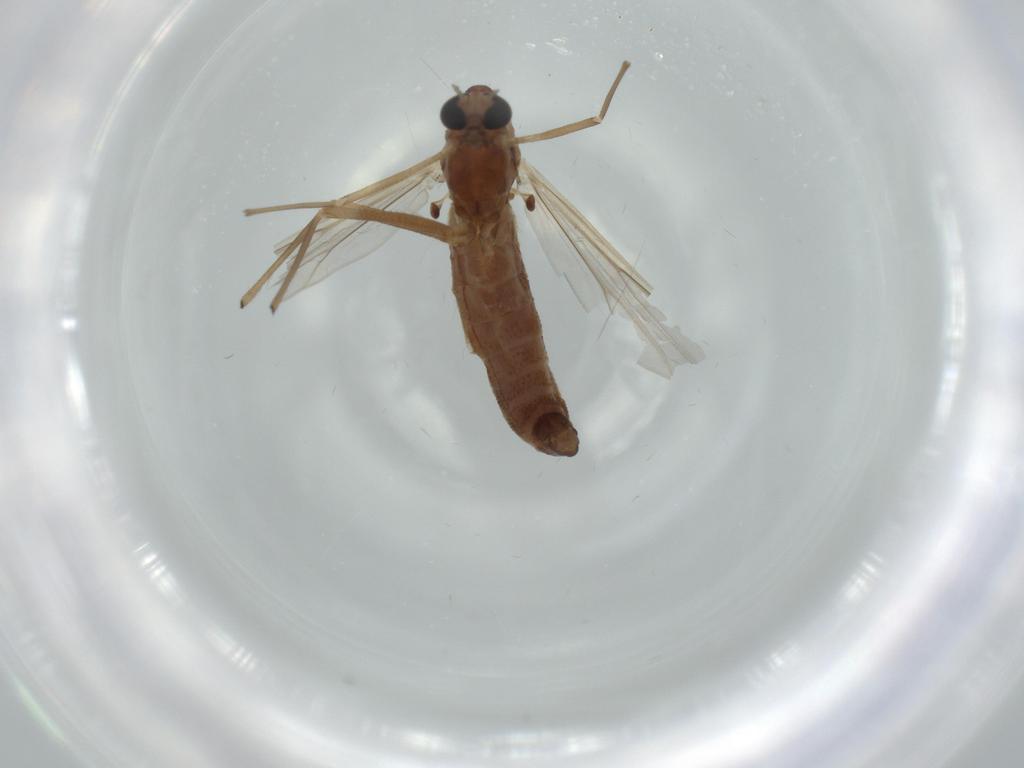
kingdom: Animalia
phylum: Arthropoda
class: Insecta
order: Diptera
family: Chironomidae
